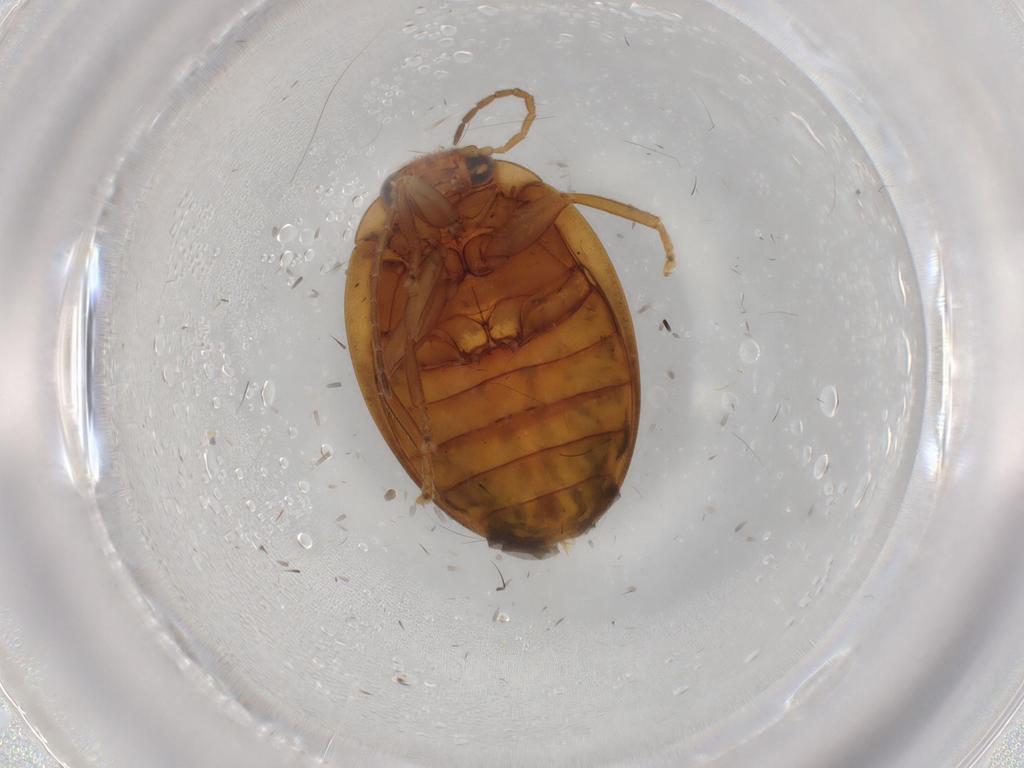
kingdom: Animalia
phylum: Arthropoda
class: Insecta
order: Coleoptera
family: Scirtidae
